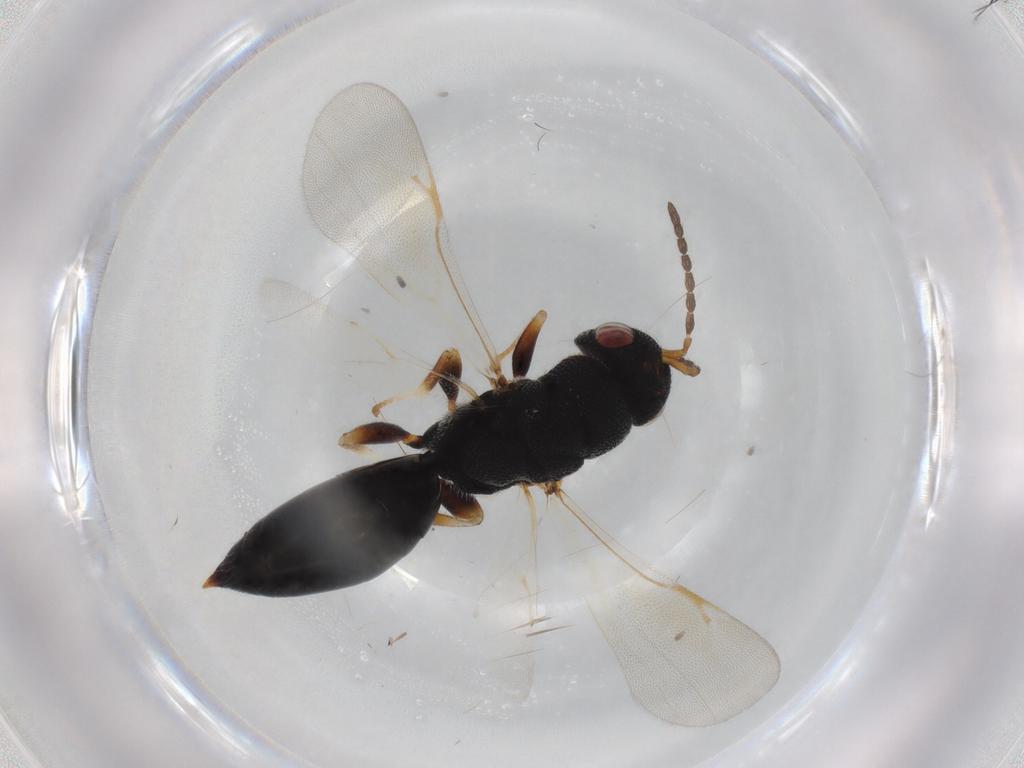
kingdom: Animalia
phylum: Arthropoda
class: Insecta
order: Hymenoptera
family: Eurytomidae
